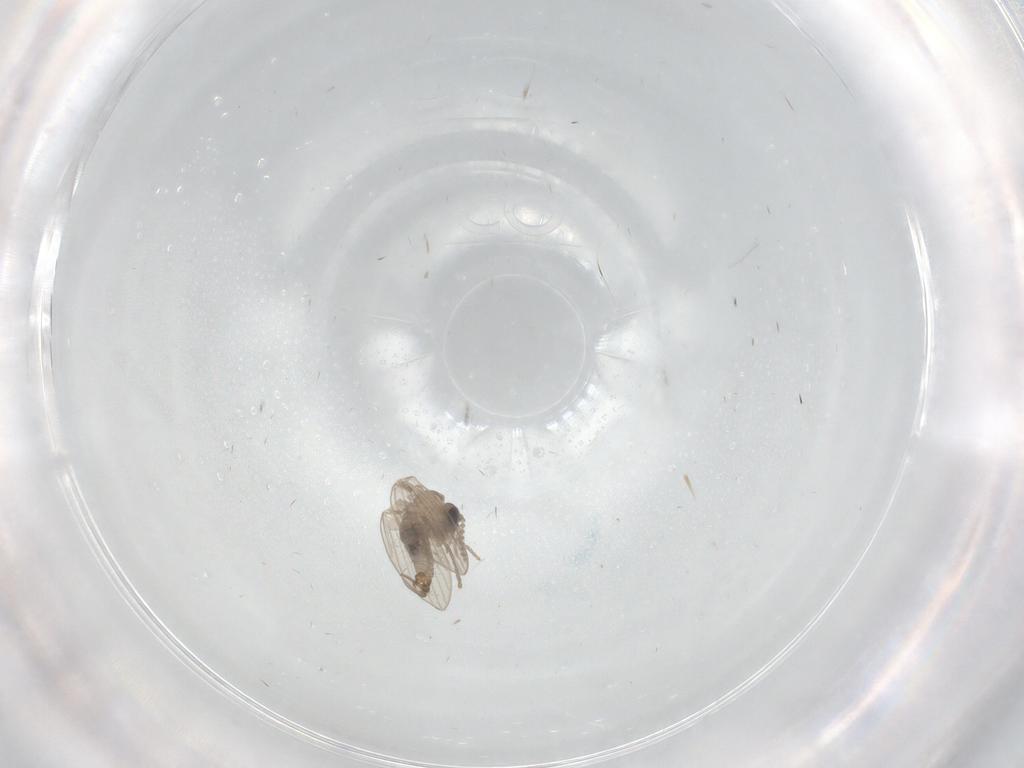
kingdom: Animalia
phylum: Arthropoda
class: Insecta
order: Diptera
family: Psychodidae
